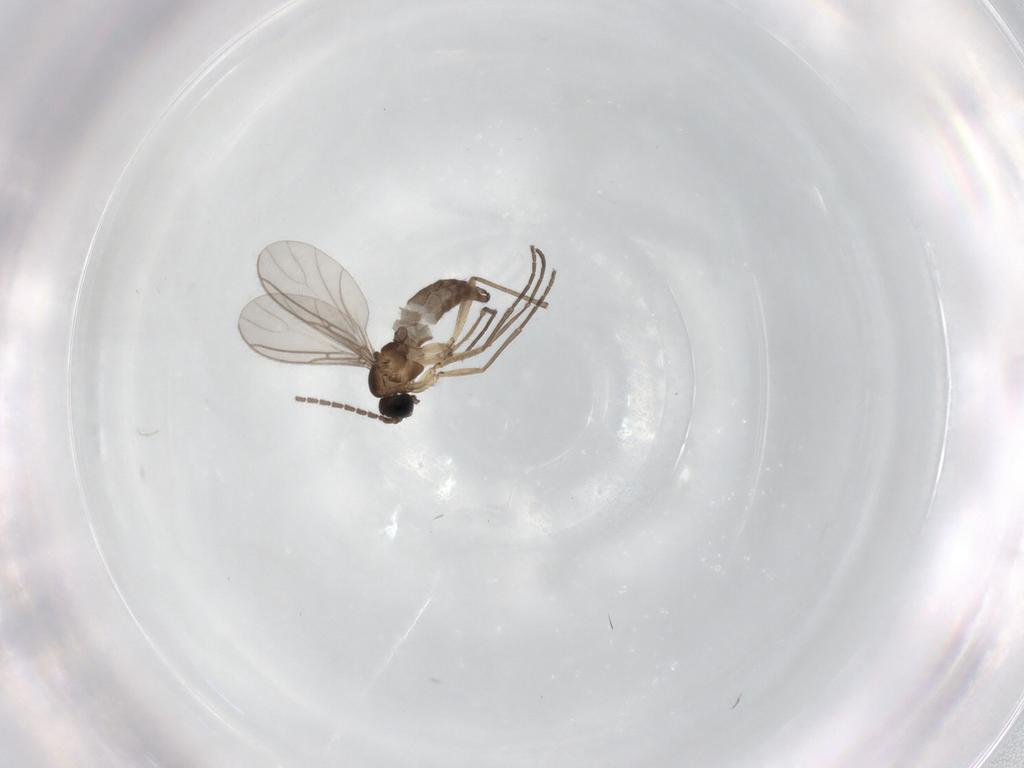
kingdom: Animalia
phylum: Arthropoda
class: Insecta
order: Diptera
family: Sciaridae
